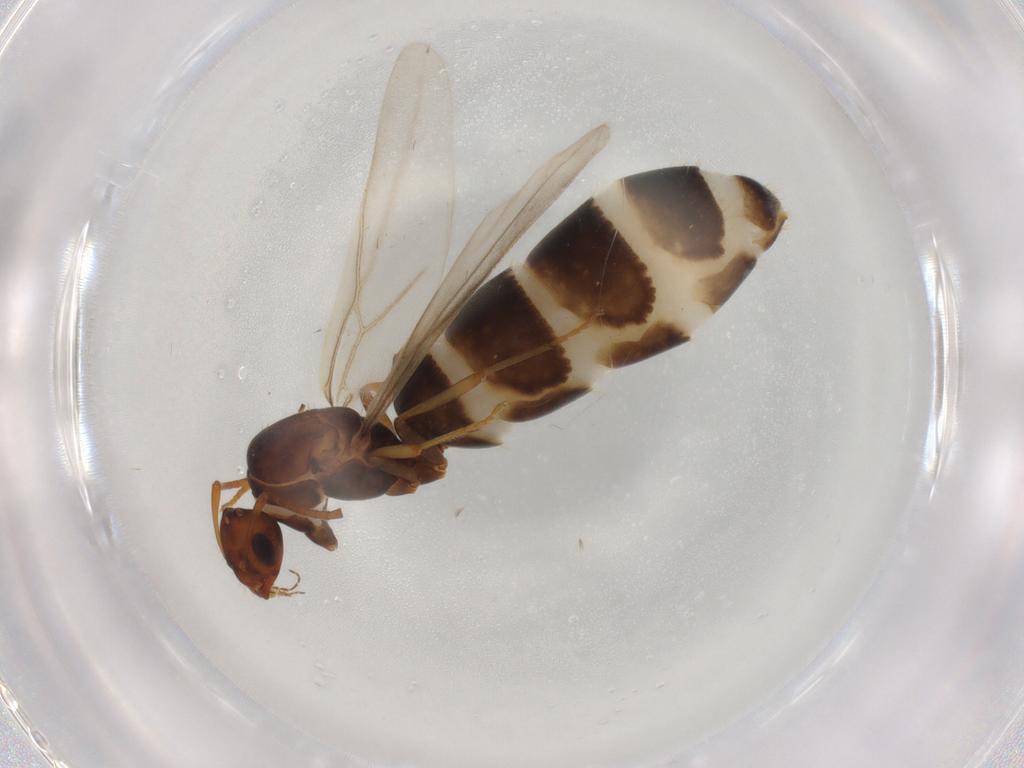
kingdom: Animalia
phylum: Arthropoda
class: Insecta
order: Hymenoptera
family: Formicidae
